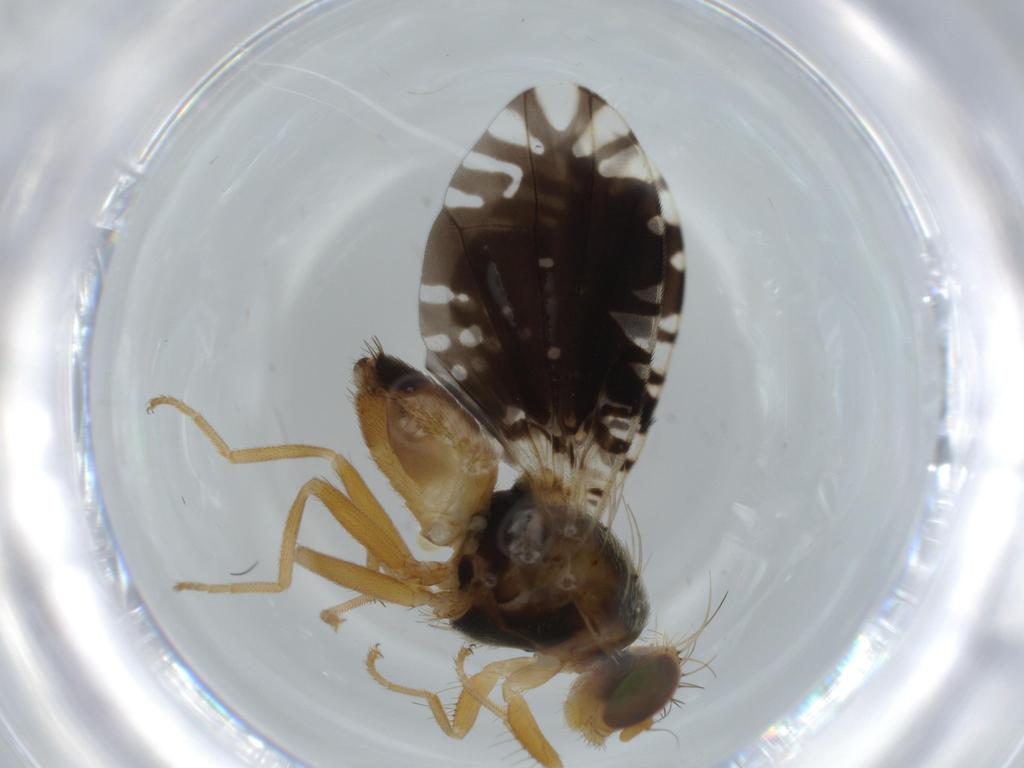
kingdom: Animalia
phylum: Arthropoda
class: Insecta
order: Diptera
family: Tephritidae
